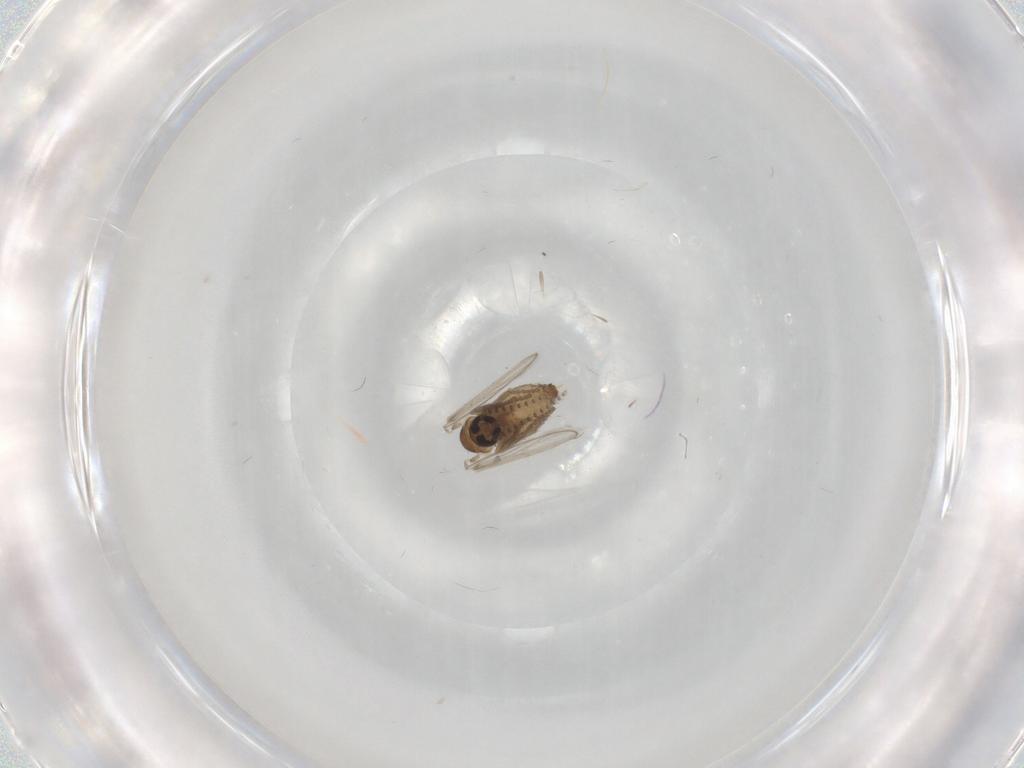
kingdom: Animalia
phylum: Arthropoda
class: Insecta
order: Diptera
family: Psychodidae
